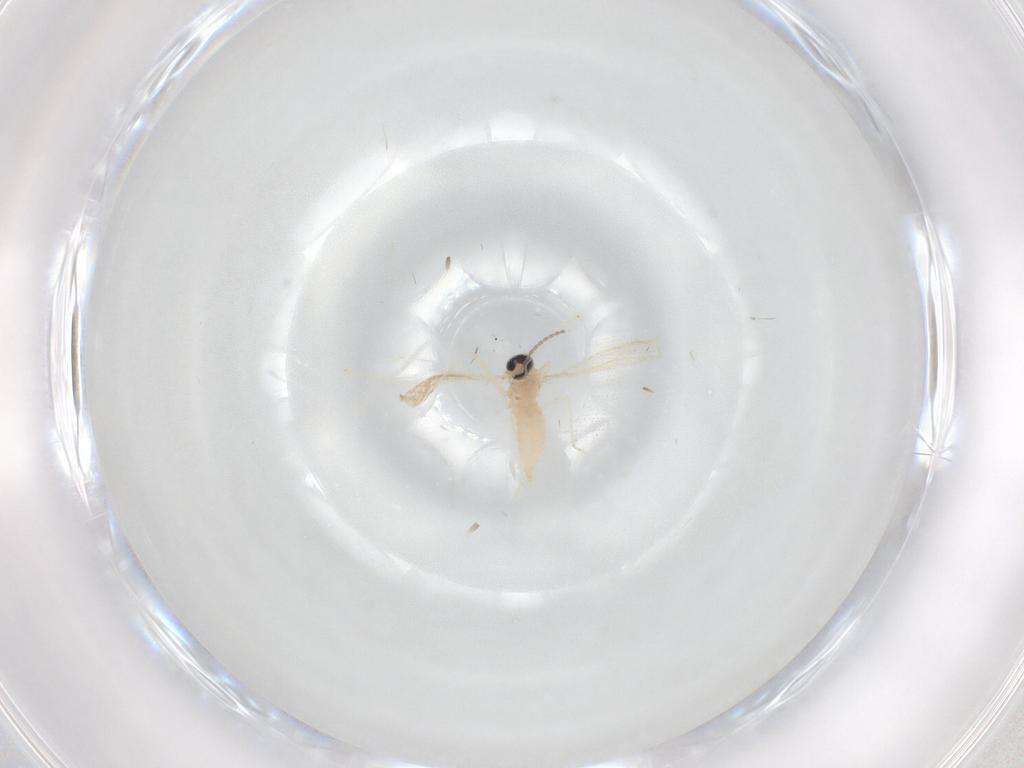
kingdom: Animalia
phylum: Arthropoda
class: Insecta
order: Diptera
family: Cecidomyiidae
